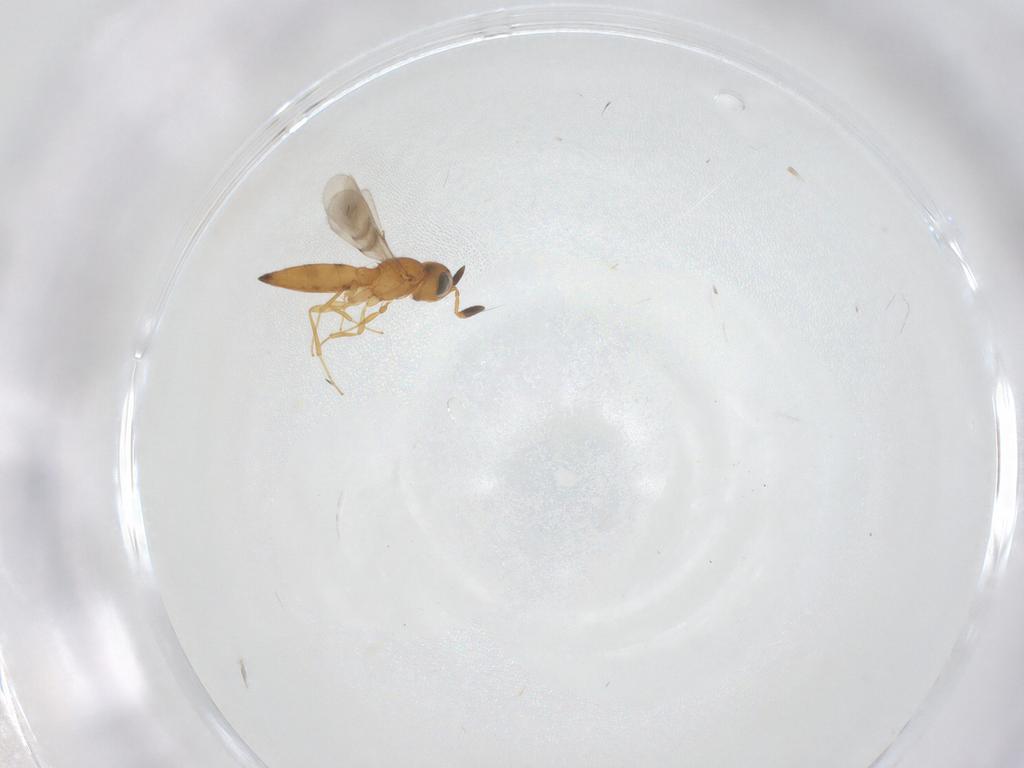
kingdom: Animalia
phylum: Arthropoda
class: Insecta
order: Hymenoptera
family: Scelionidae
